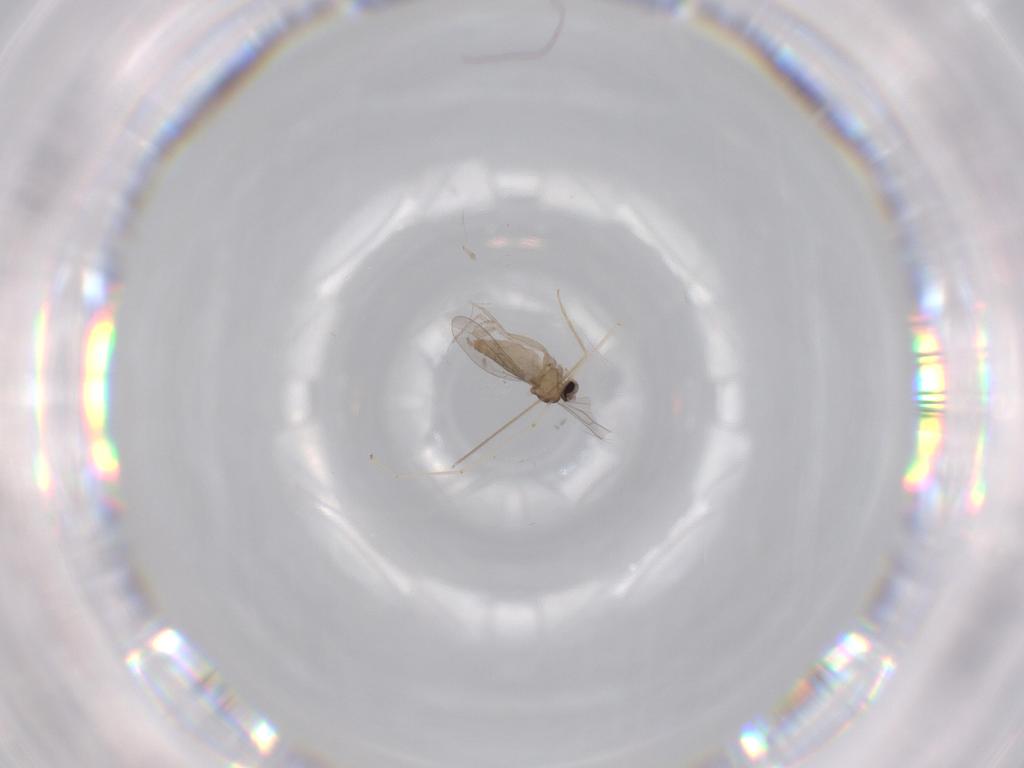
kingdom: Animalia
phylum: Arthropoda
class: Insecta
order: Diptera
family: Cecidomyiidae
